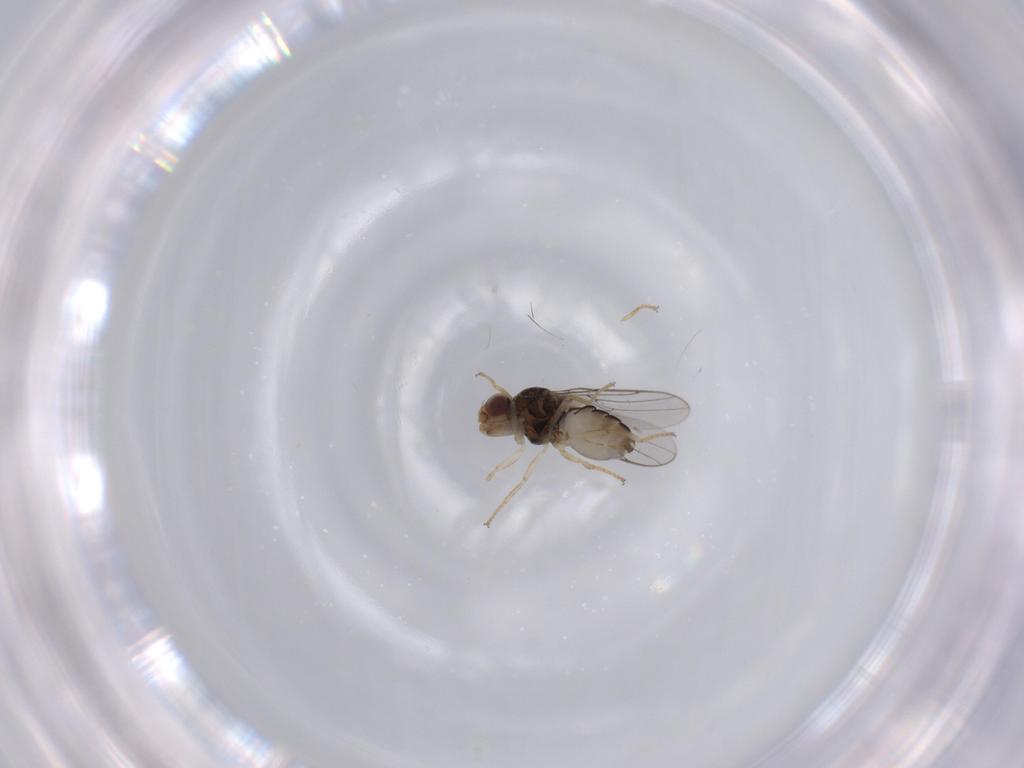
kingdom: Animalia
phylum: Arthropoda
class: Insecta
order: Diptera
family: Chloropidae
